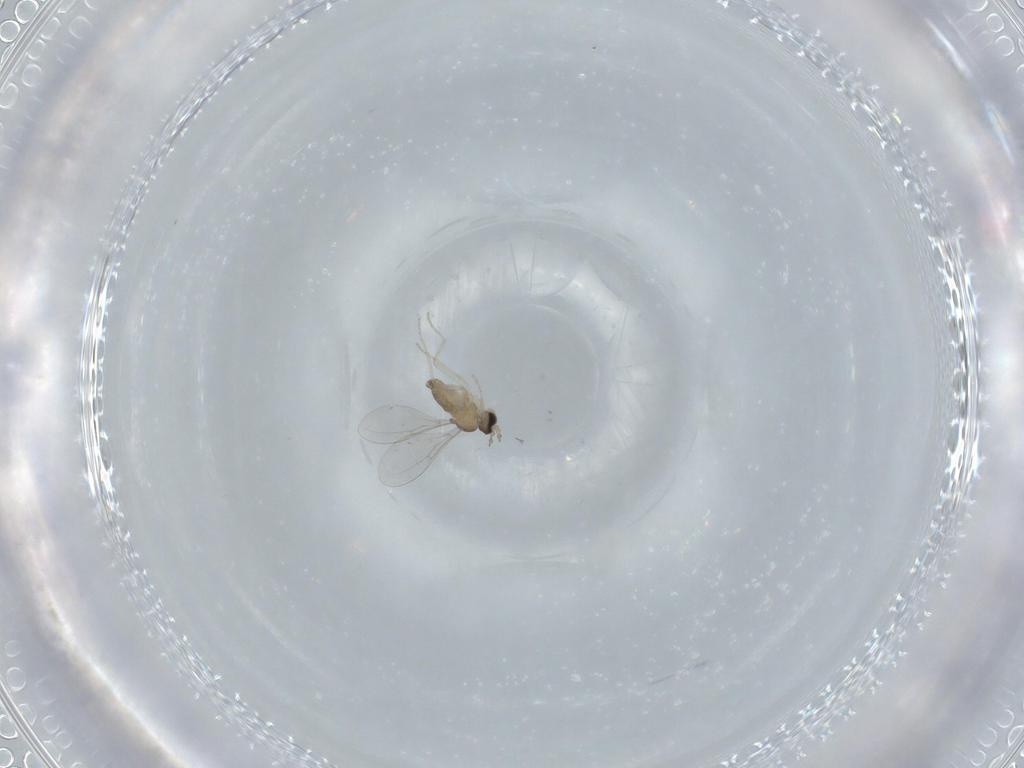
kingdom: Animalia
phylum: Arthropoda
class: Insecta
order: Diptera
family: Cecidomyiidae
